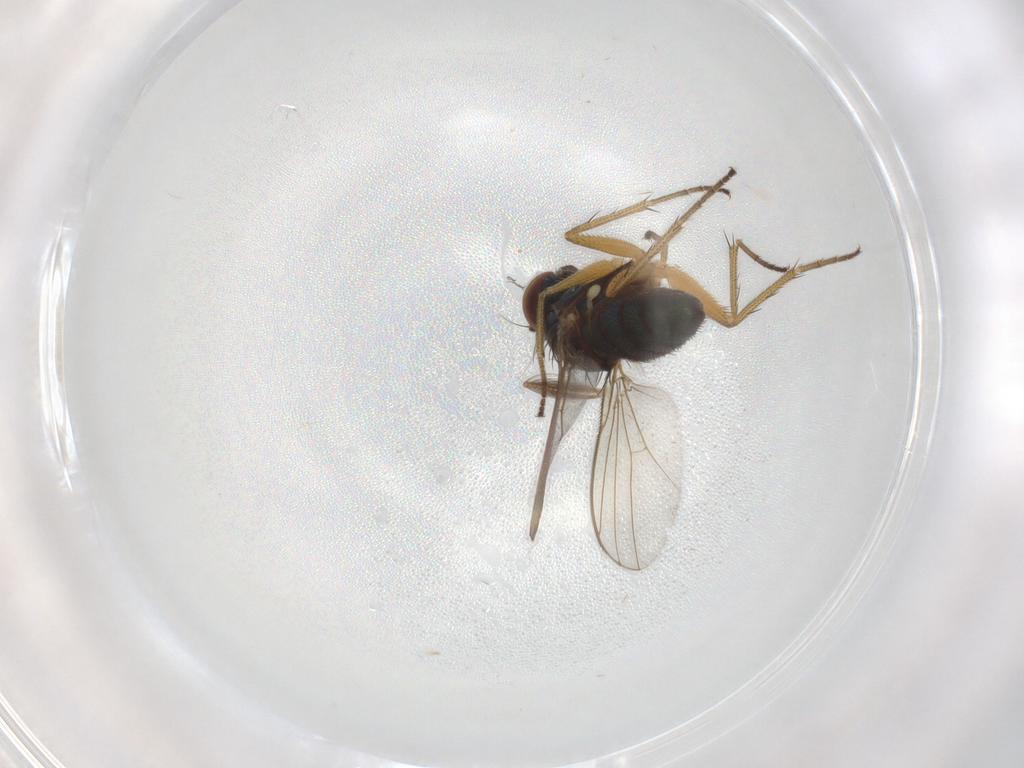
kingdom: Animalia
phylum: Arthropoda
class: Insecta
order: Diptera
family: Ceratopogonidae
